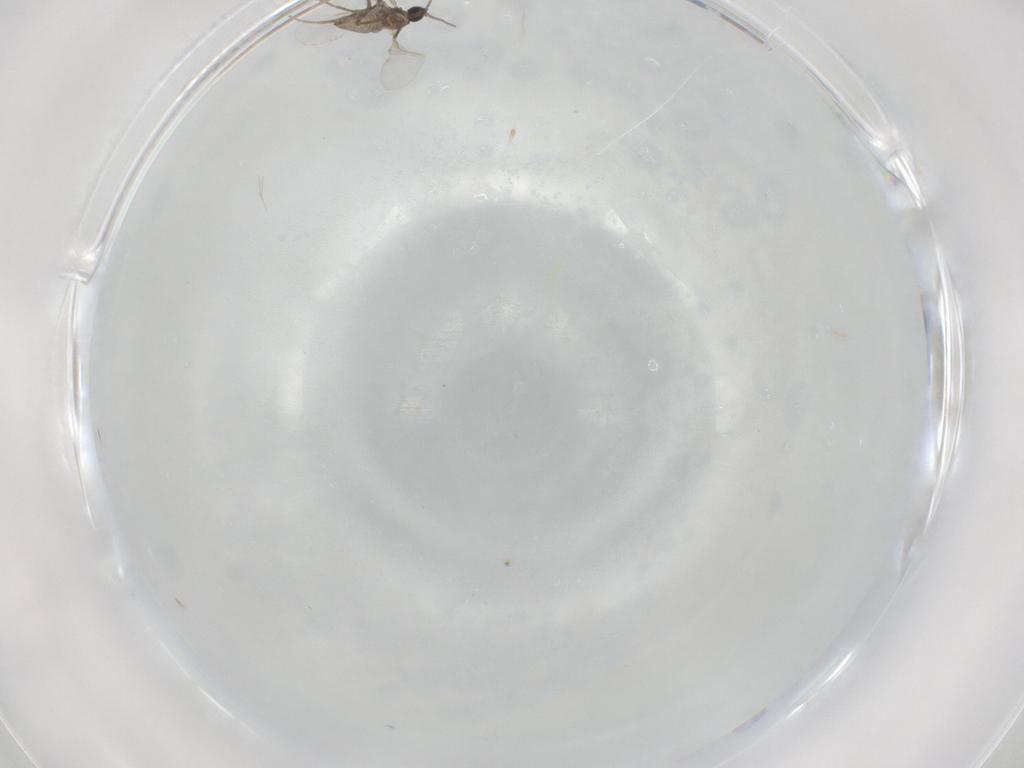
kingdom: Animalia
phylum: Arthropoda
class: Insecta
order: Diptera
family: Cecidomyiidae
